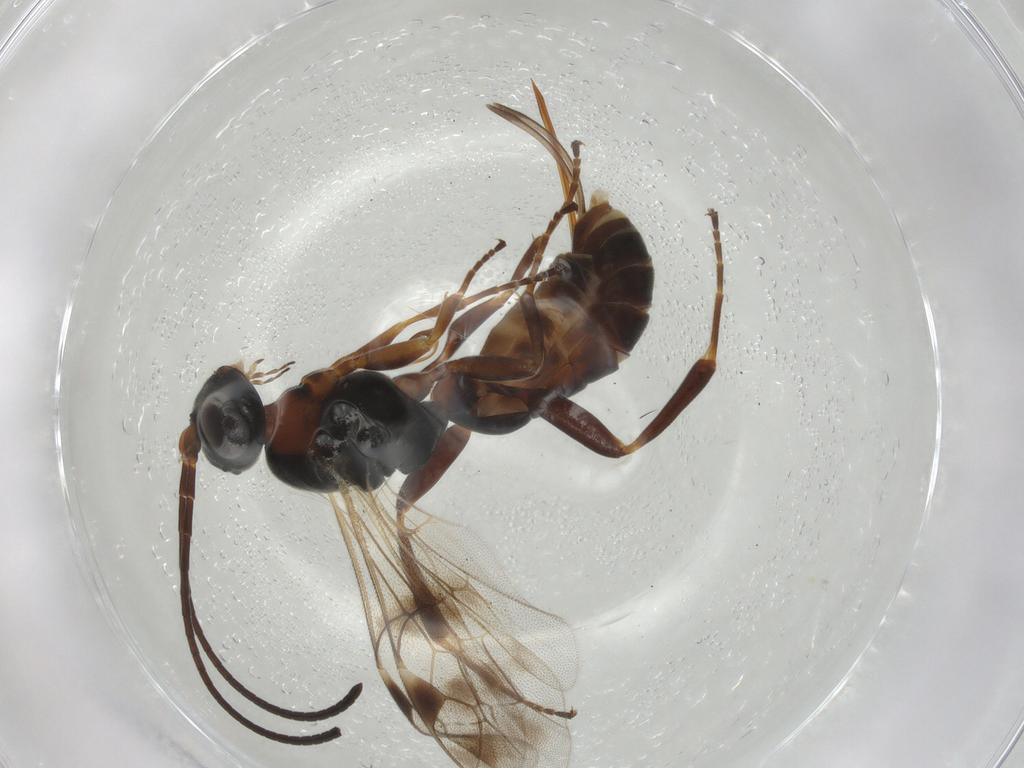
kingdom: Animalia
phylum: Arthropoda
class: Insecta
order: Hymenoptera
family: Ichneumonidae
